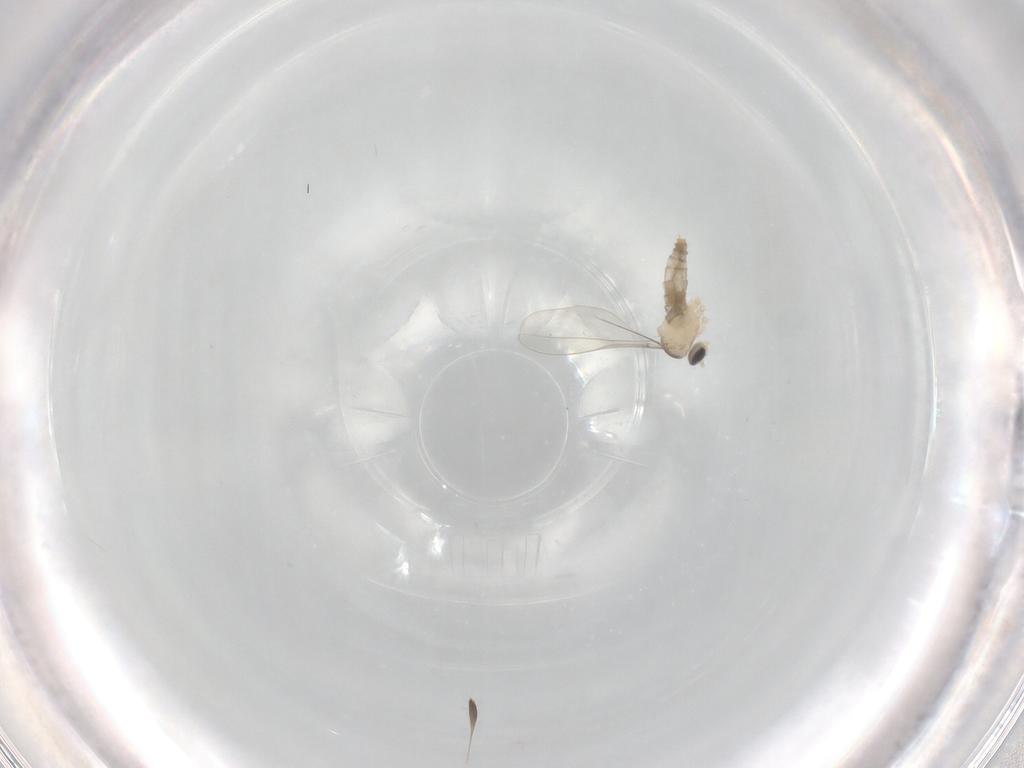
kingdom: Animalia
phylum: Arthropoda
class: Insecta
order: Diptera
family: Cecidomyiidae
